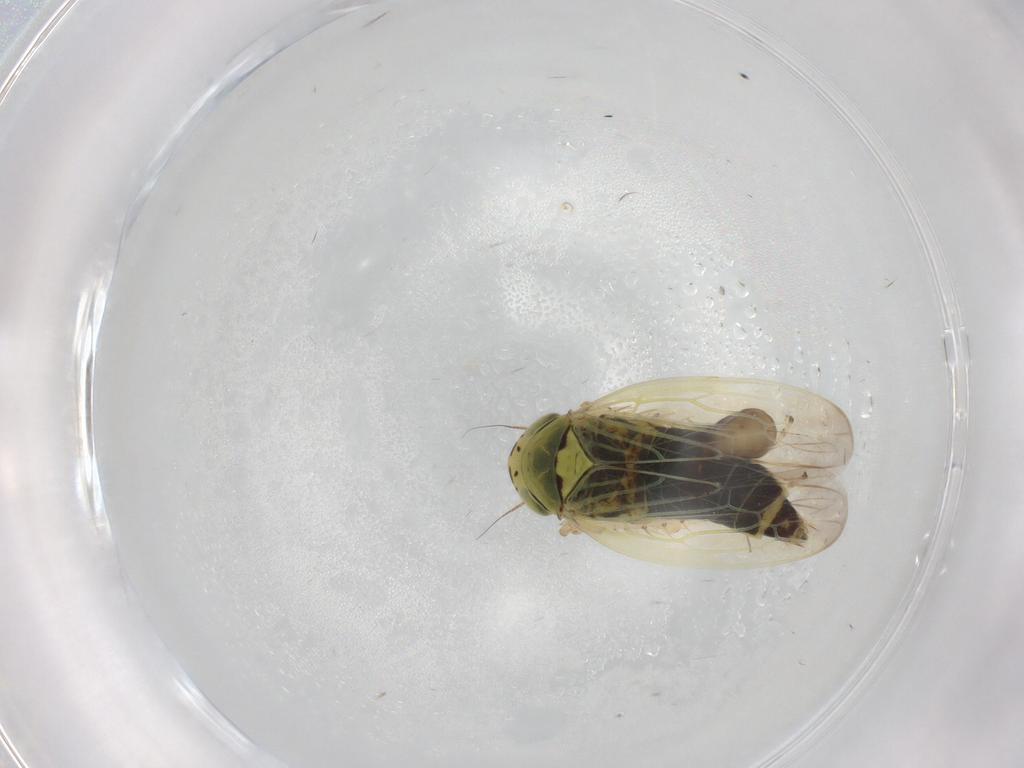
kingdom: Animalia
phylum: Arthropoda
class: Insecta
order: Hemiptera
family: Cicadellidae
